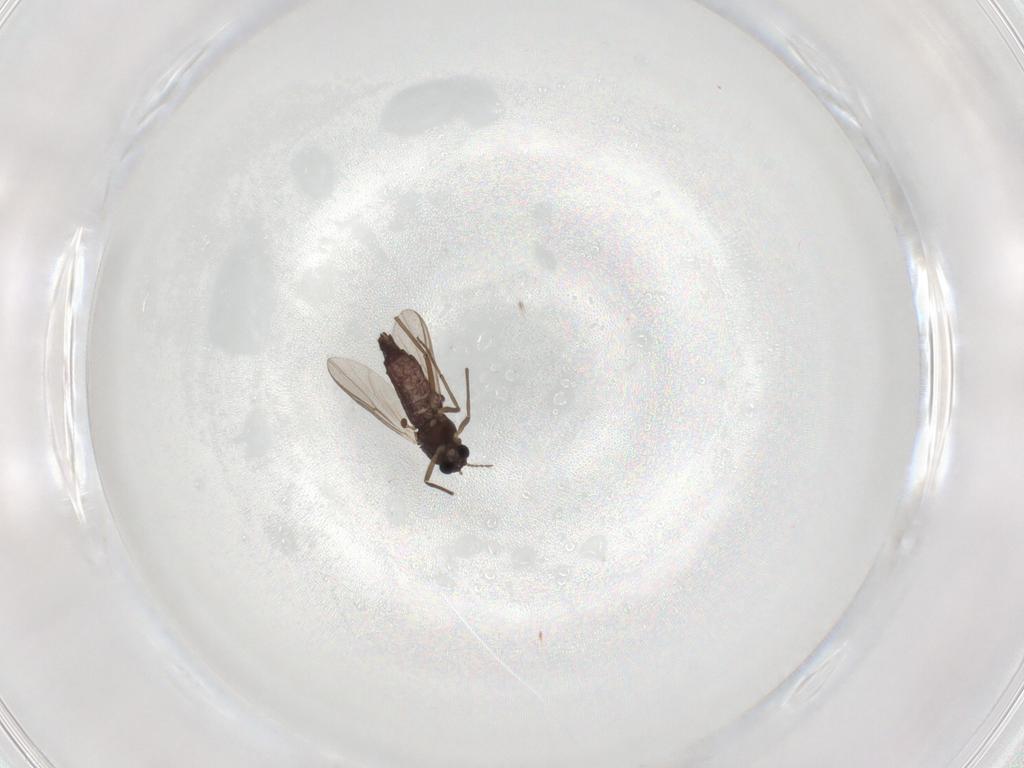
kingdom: Animalia
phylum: Arthropoda
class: Insecta
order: Diptera
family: Chironomidae
